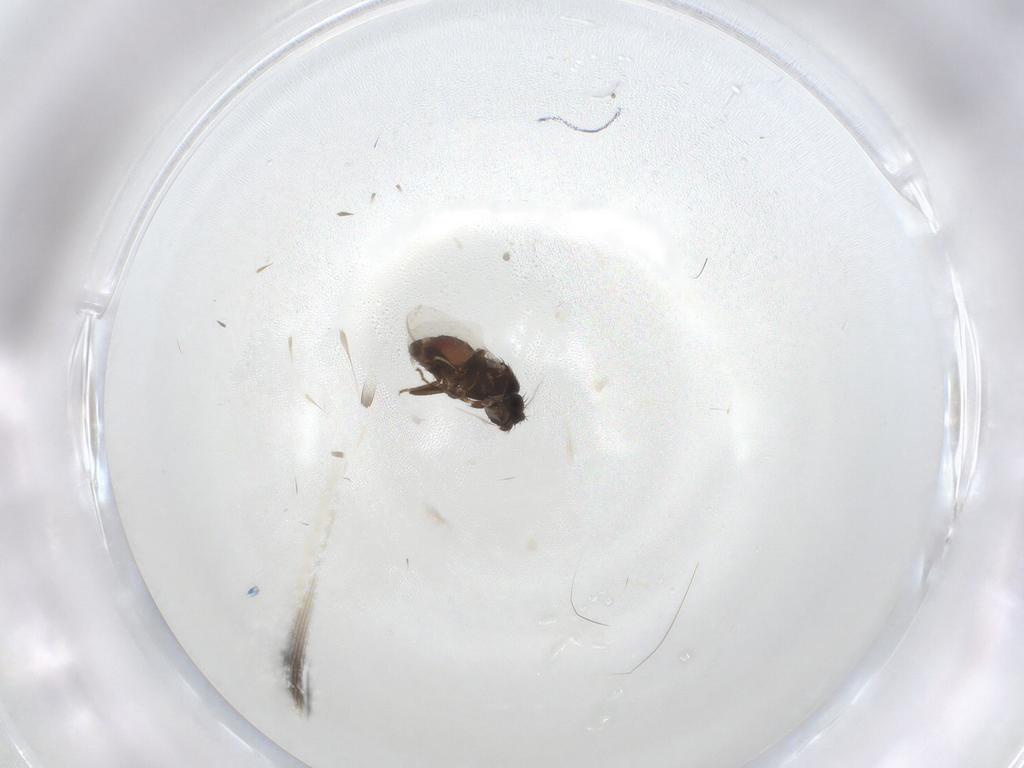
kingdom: Animalia
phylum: Arthropoda
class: Insecta
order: Diptera
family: Sphaeroceridae
